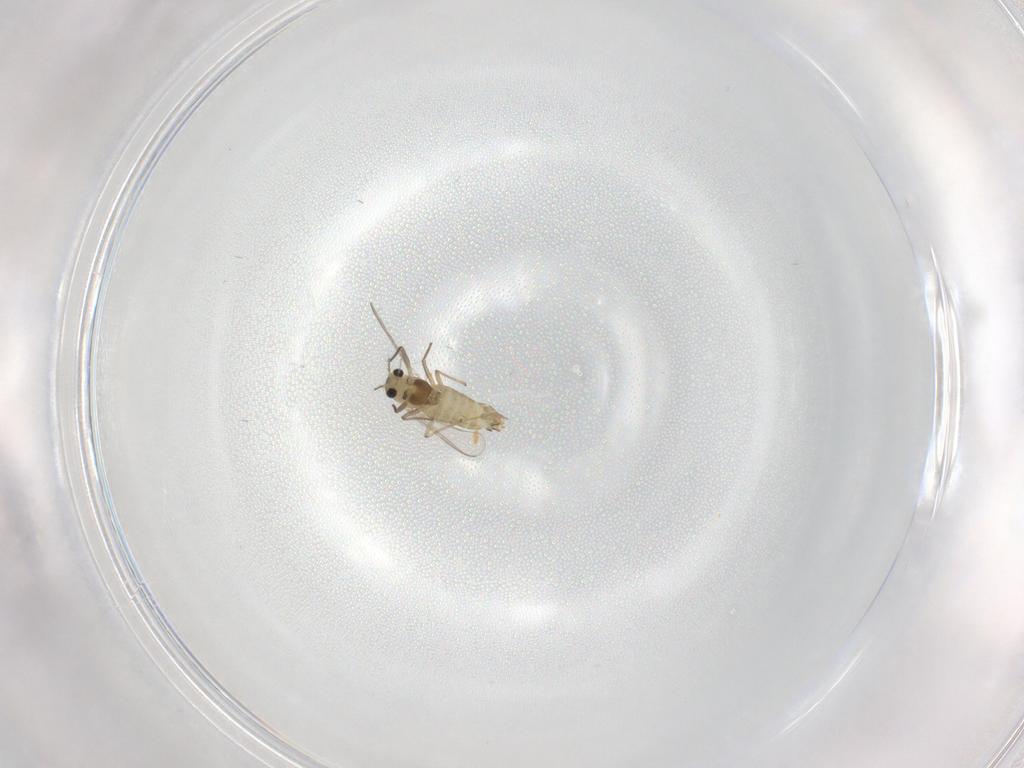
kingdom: Animalia
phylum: Arthropoda
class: Insecta
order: Diptera
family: Chironomidae
